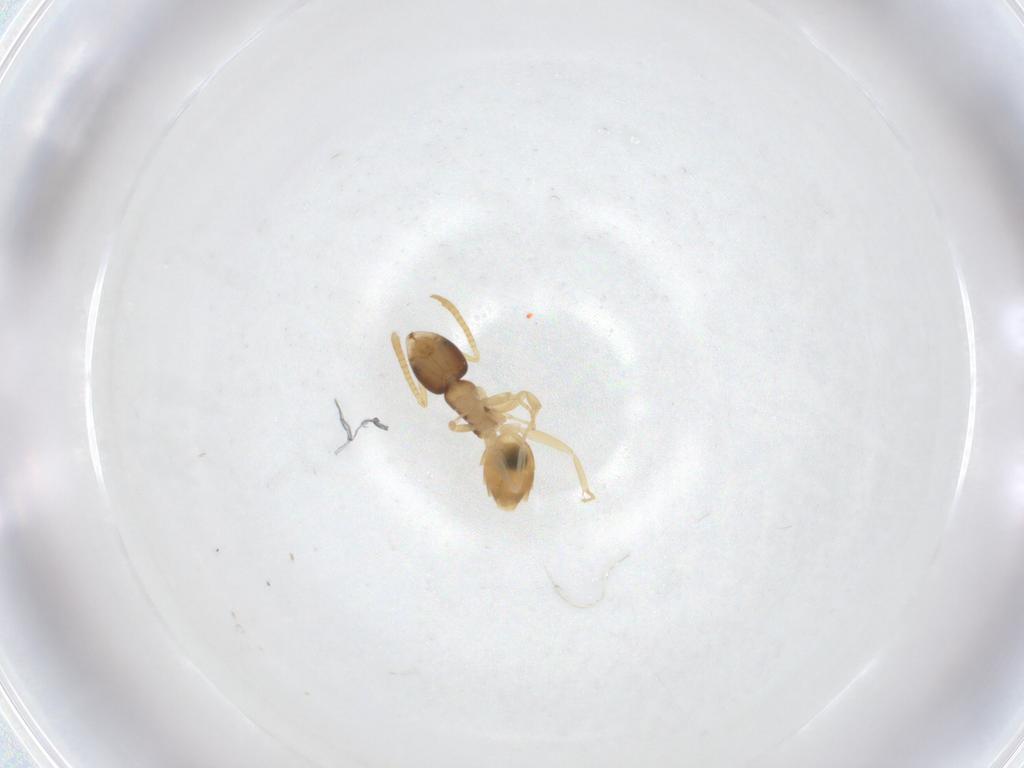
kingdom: Animalia
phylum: Arthropoda
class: Insecta
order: Hymenoptera
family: Formicidae
